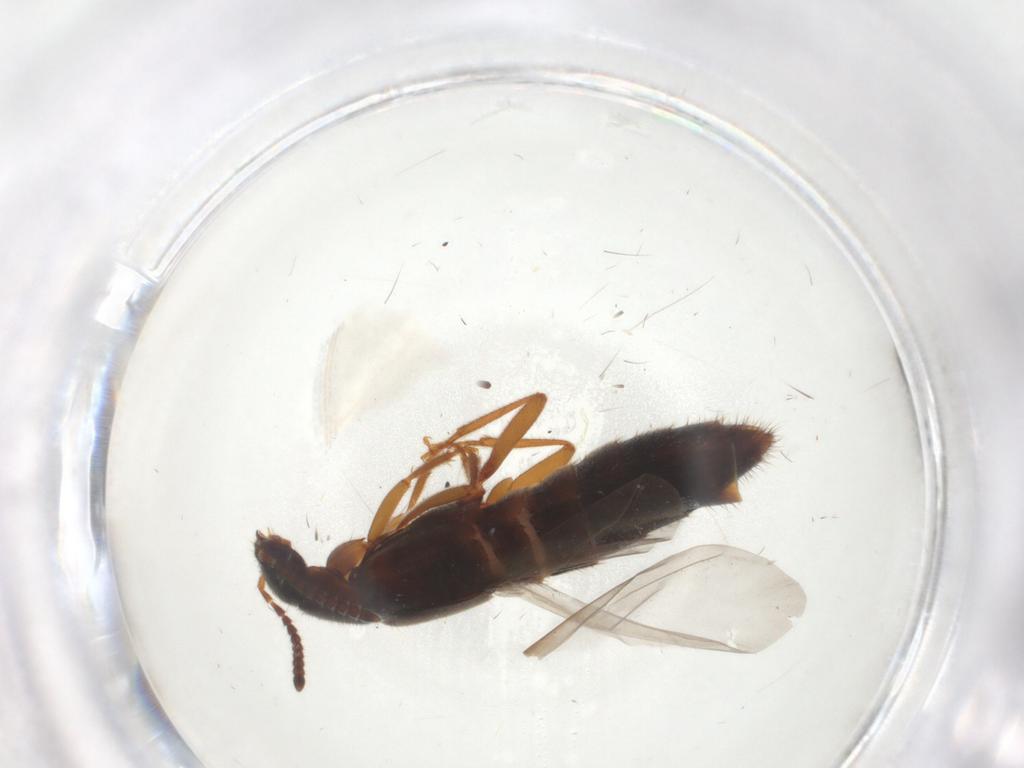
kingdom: Animalia
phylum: Arthropoda
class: Insecta
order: Coleoptera
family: Staphylinidae
